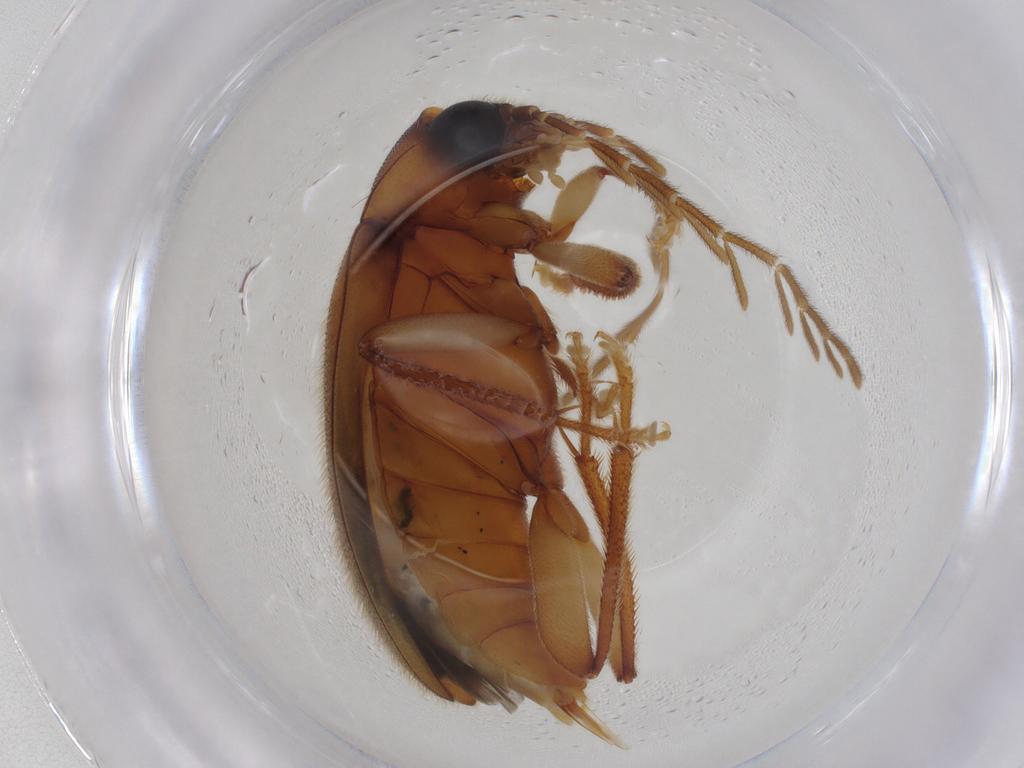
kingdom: Animalia
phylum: Arthropoda
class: Insecta
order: Coleoptera
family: Ptilodactylidae
